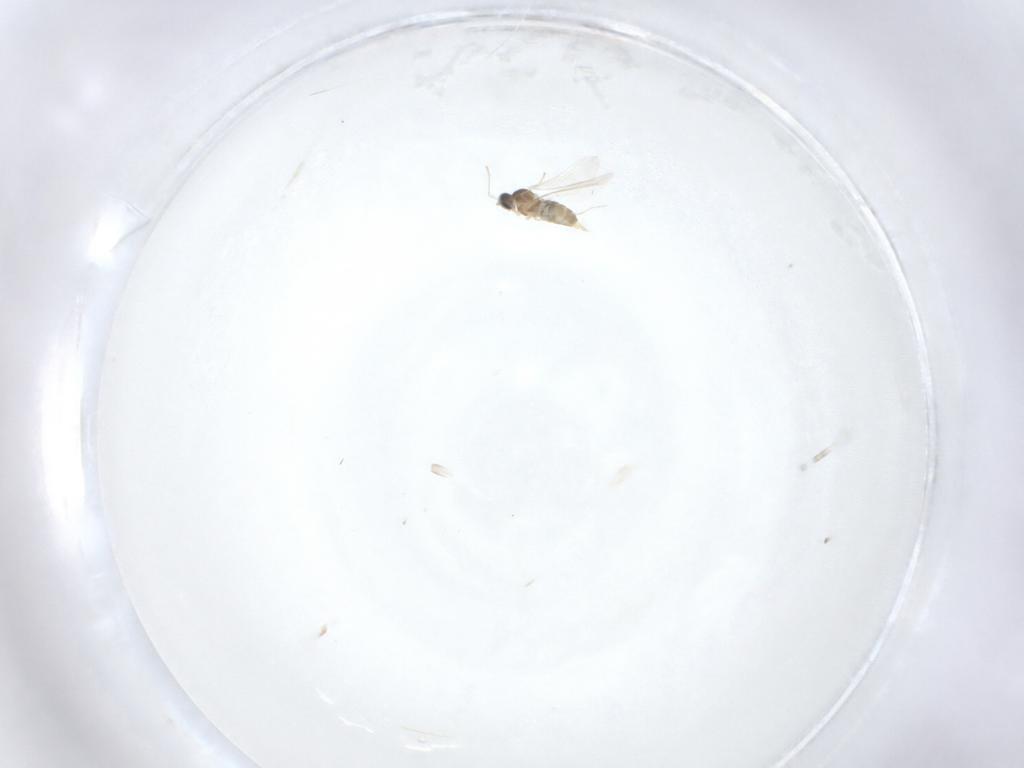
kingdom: Animalia
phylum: Arthropoda
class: Insecta
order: Diptera
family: Cecidomyiidae
